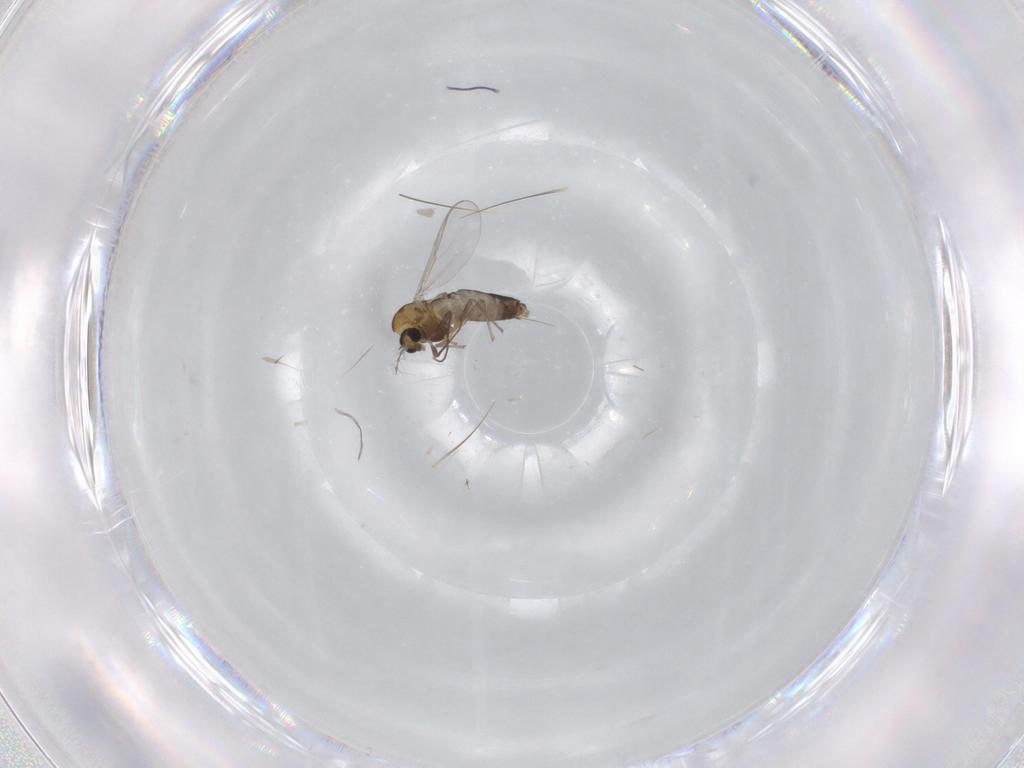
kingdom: Animalia
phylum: Arthropoda
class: Insecta
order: Diptera
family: Chironomidae
